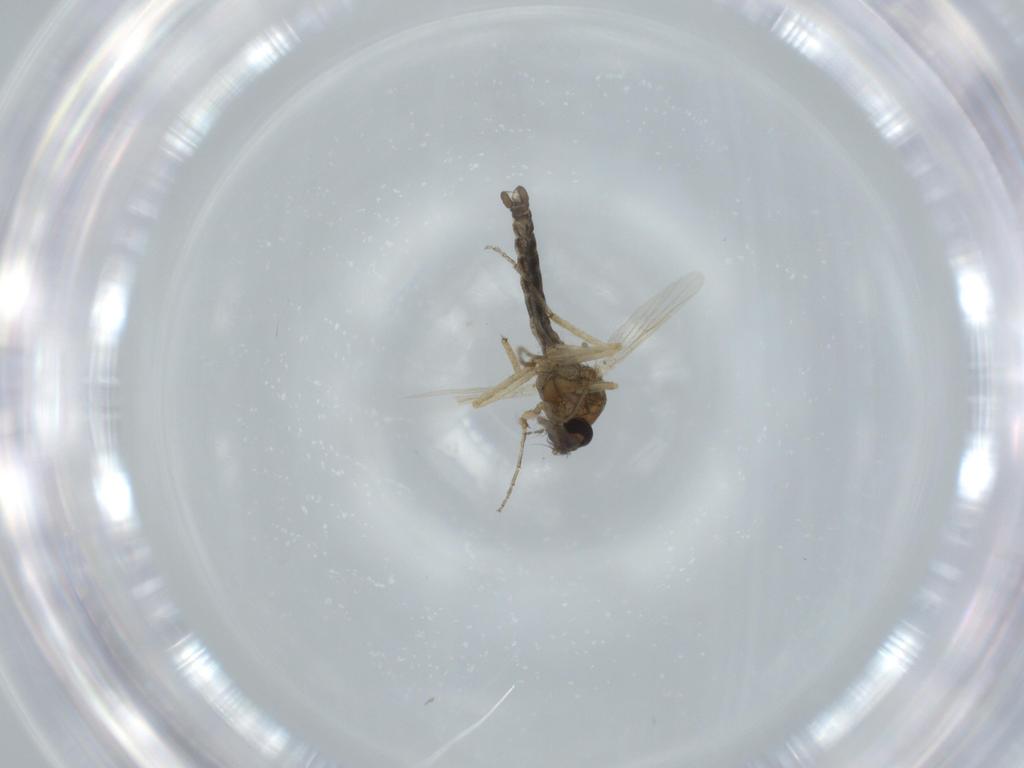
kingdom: Animalia
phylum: Arthropoda
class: Insecta
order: Diptera
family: Ceratopogonidae
